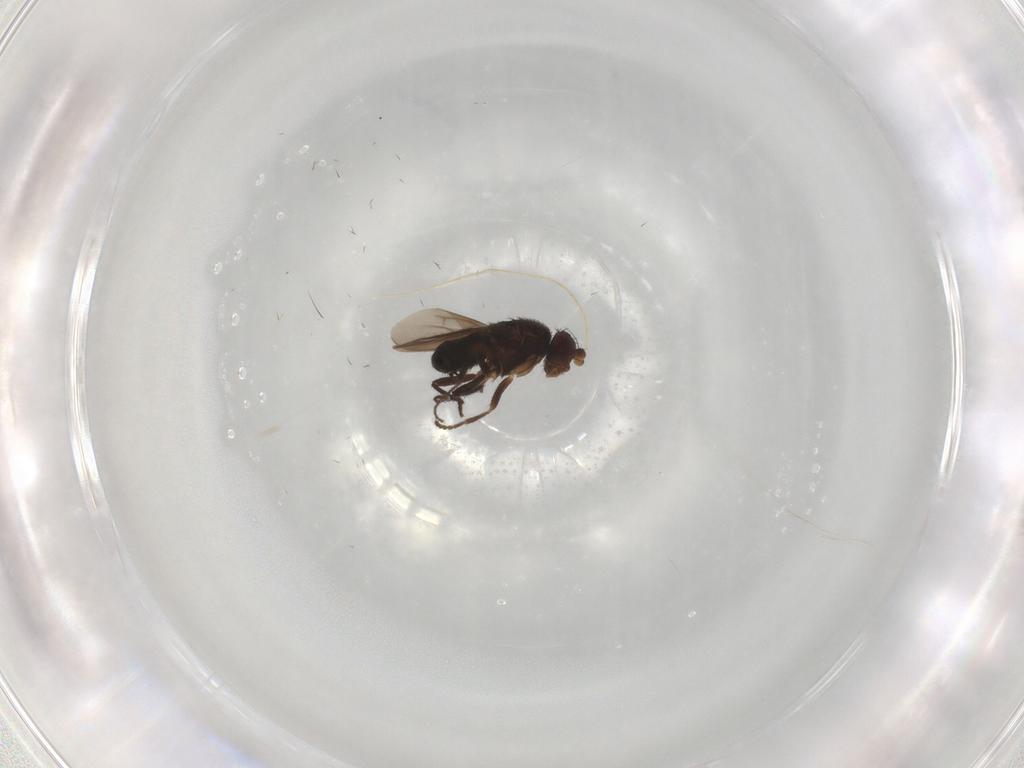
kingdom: Animalia
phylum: Arthropoda
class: Insecta
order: Diptera
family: Sphaeroceridae
